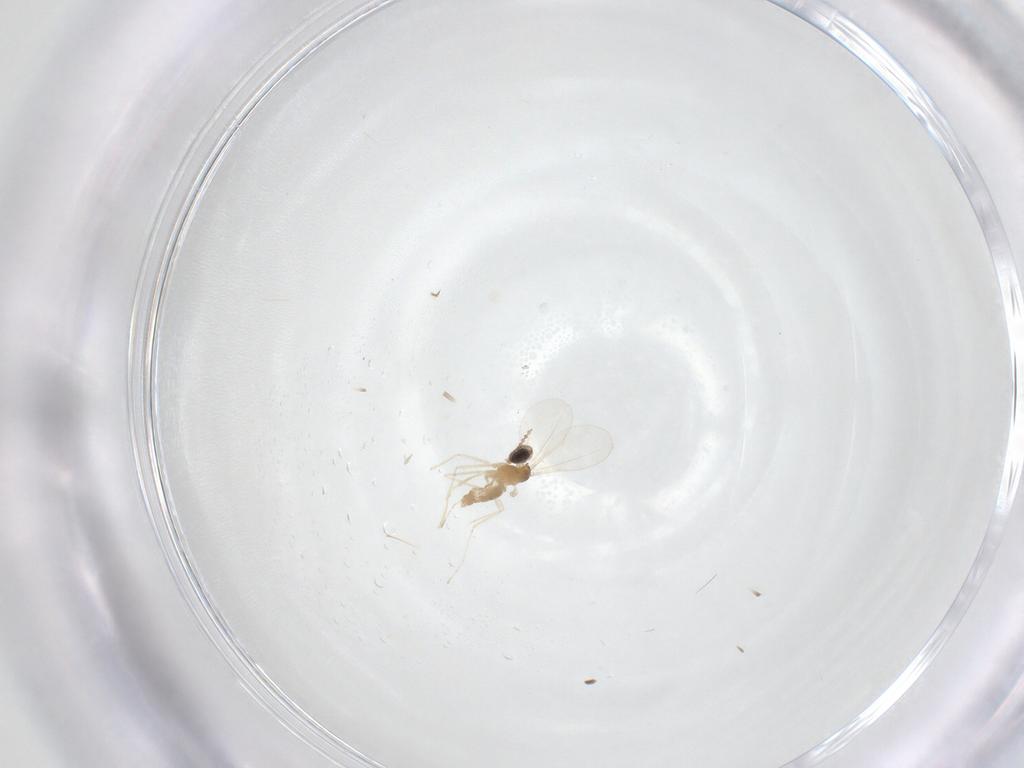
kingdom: Animalia
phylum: Arthropoda
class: Insecta
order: Diptera
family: Cecidomyiidae
